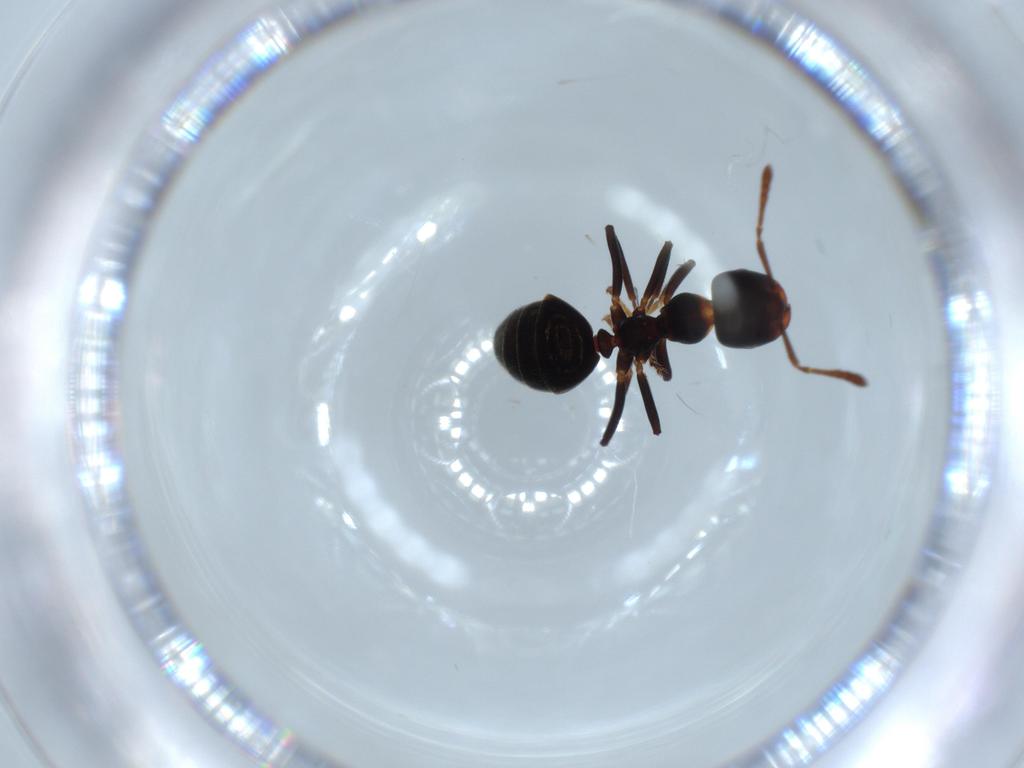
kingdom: Animalia
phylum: Arthropoda
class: Insecta
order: Hymenoptera
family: Formicidae
